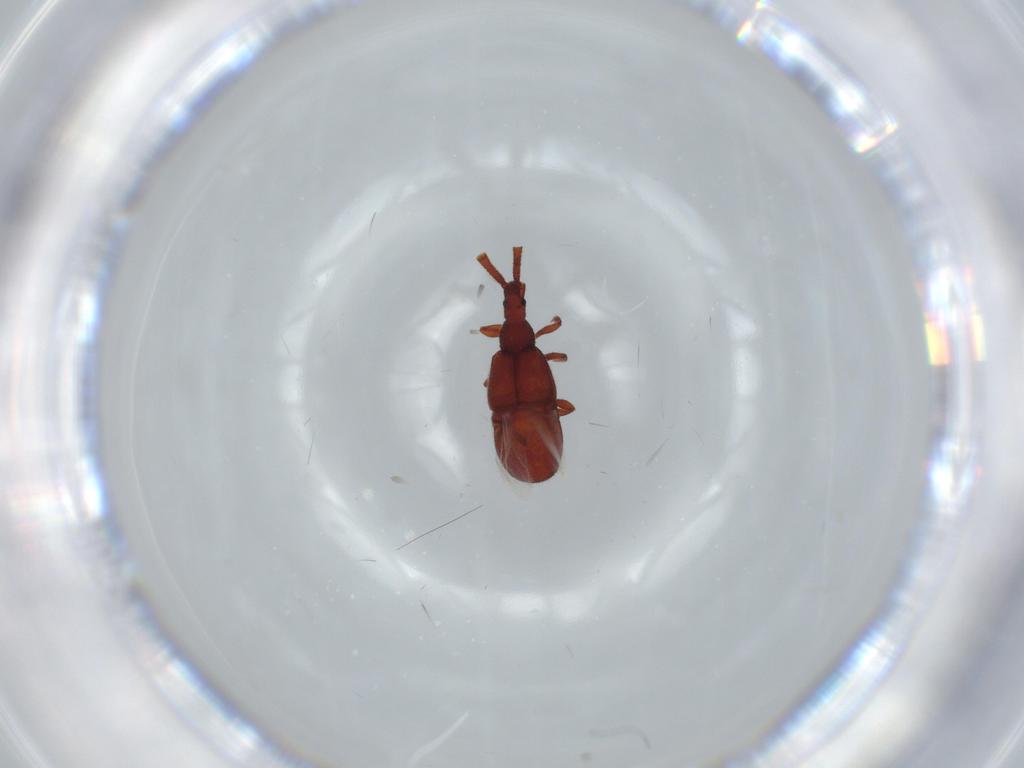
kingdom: Animalia
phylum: Arthropoda
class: Insecta
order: Coleoptera
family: Staphylinidae
